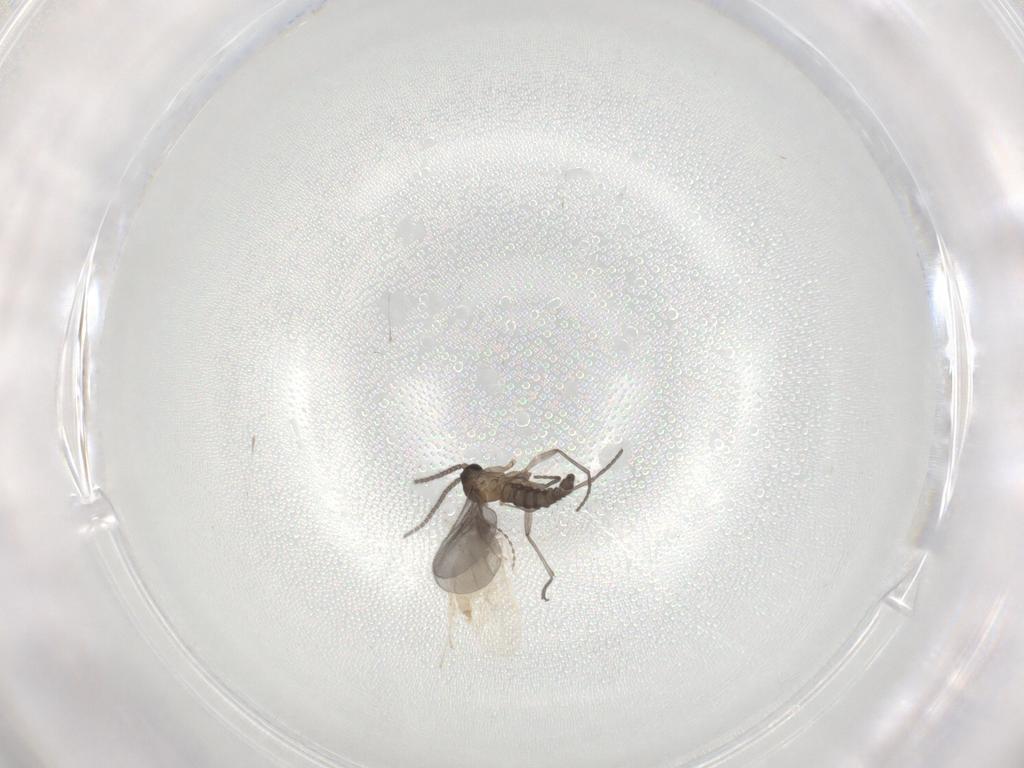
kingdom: Animalia
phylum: Arthropoda
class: Insecta
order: Diptera
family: Sciaridae
